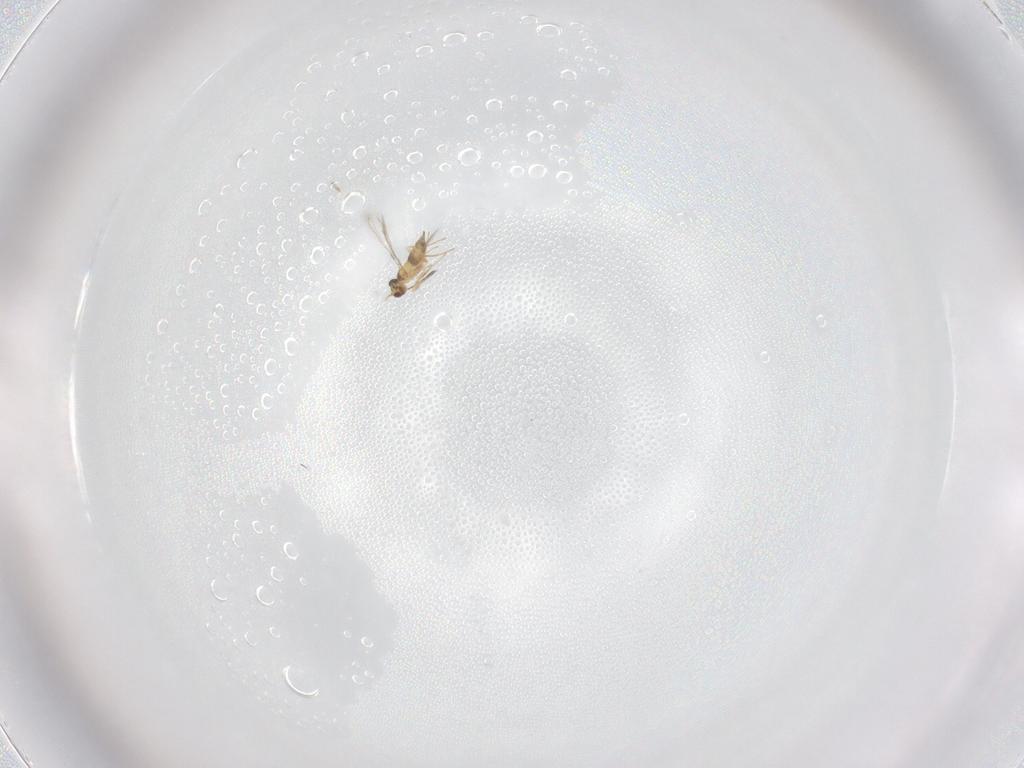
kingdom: Animalia
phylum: Arthropoda
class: Insecta
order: Hymenoptera
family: Mymaridae
